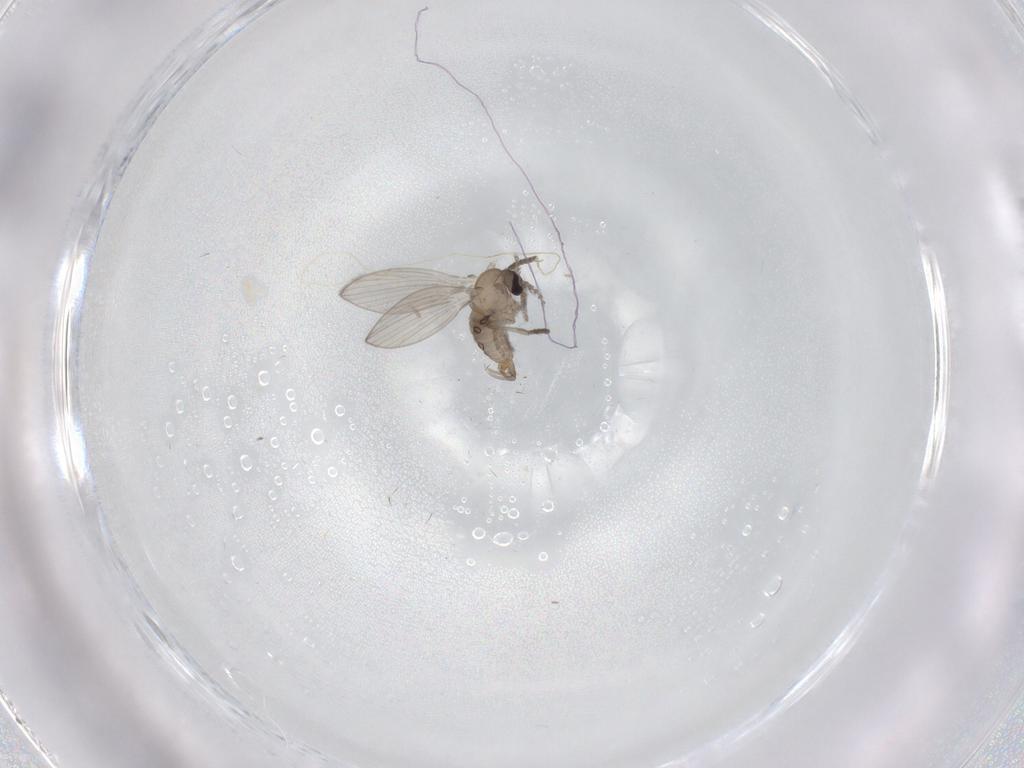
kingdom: Animalia
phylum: Arthropoda
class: Insecta
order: Diptera
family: Psychodidae
